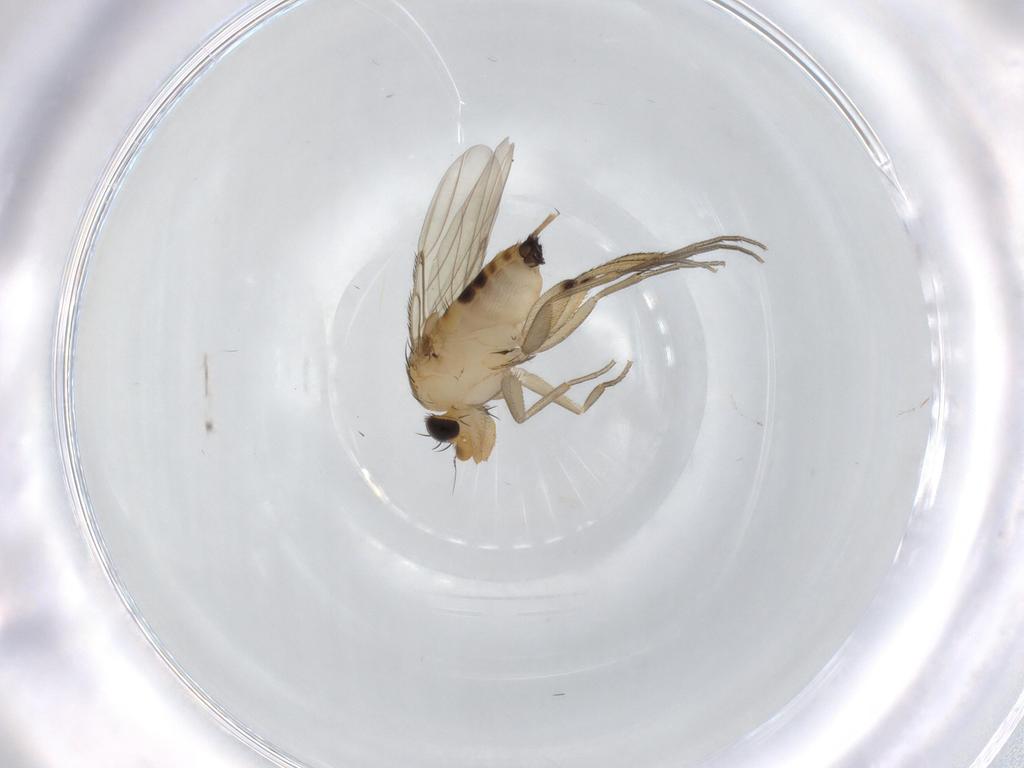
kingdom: Animalia
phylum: Arthropoda
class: Insecta
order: Diptera
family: Phoridae
